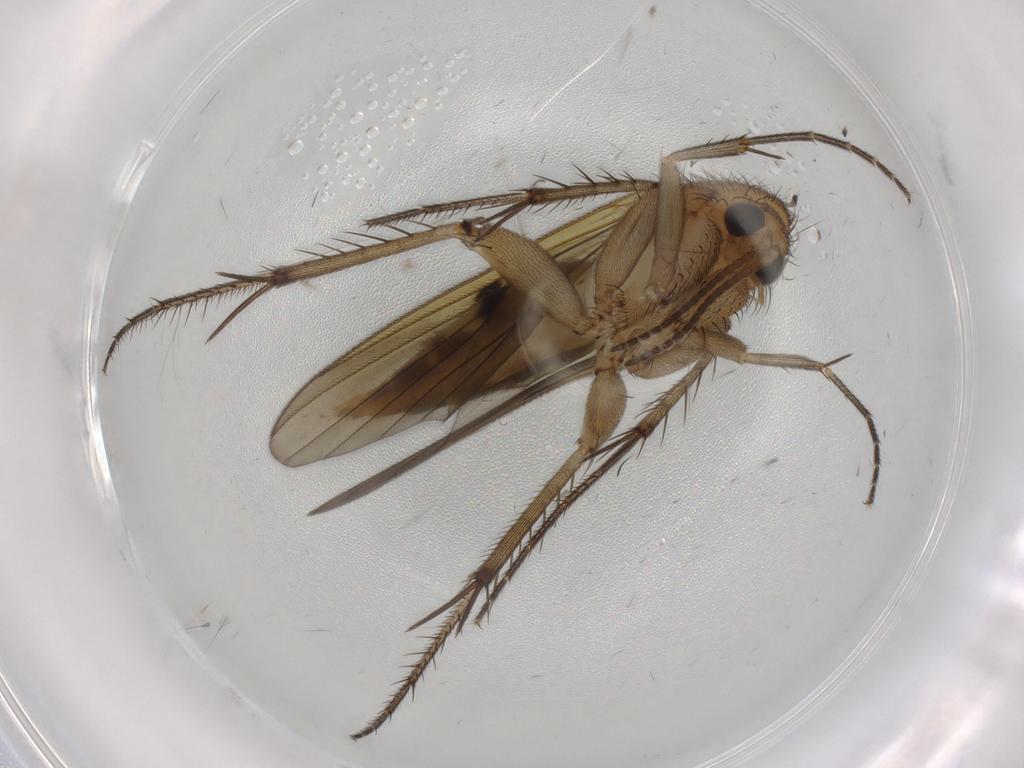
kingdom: Animalia
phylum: Arthropoda
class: Insecta
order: Diptera
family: Mycetophilidae
